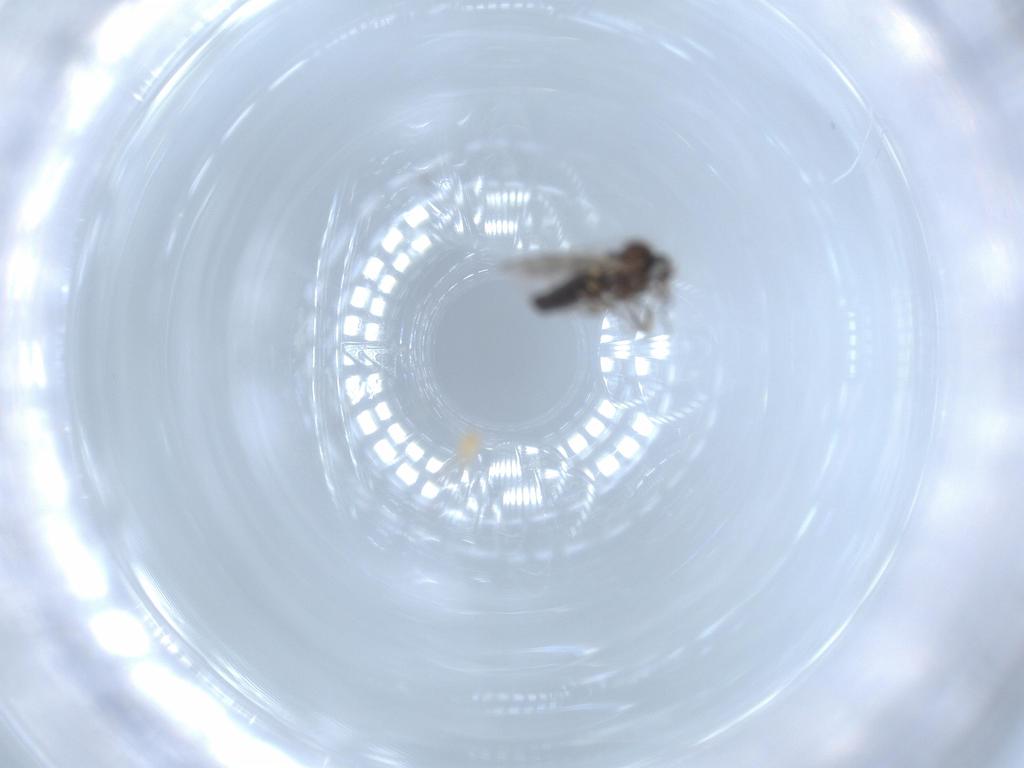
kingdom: Animalia
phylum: Arthropoda
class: Insecta
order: Diptera
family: Ceratopogonidae
